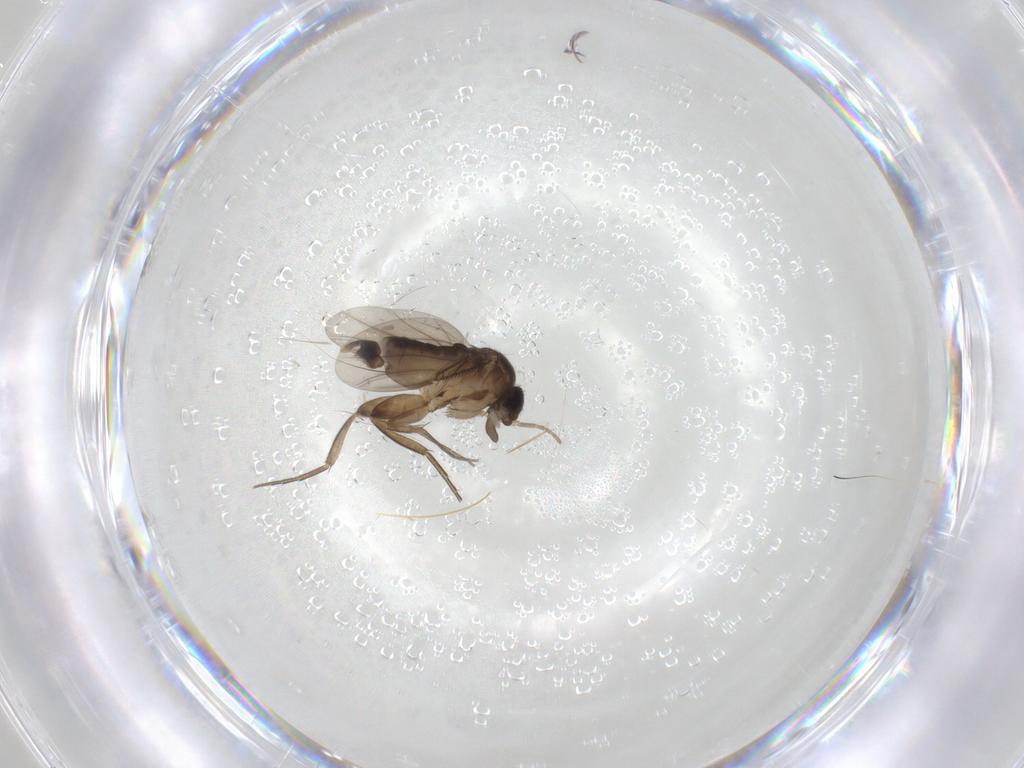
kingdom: Animalia
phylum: Arthropoda
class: Insecta
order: Diptera
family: Phoridae
